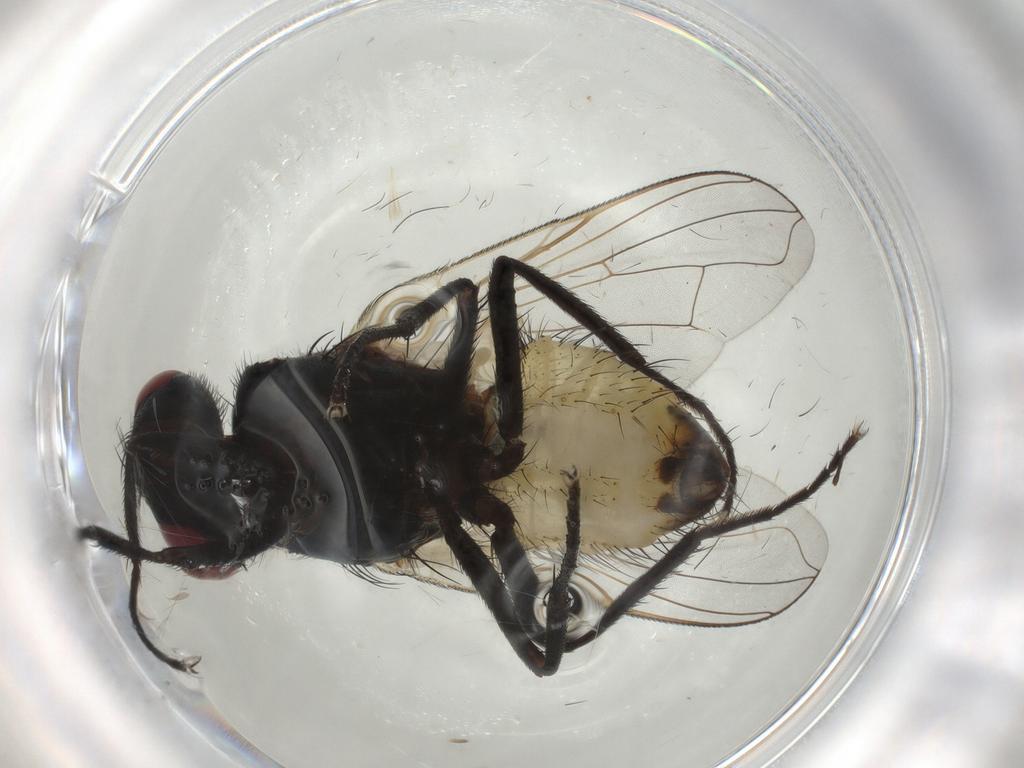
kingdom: Animalia
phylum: Arthropoda
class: Insecta
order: Diptera
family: Muscidae
